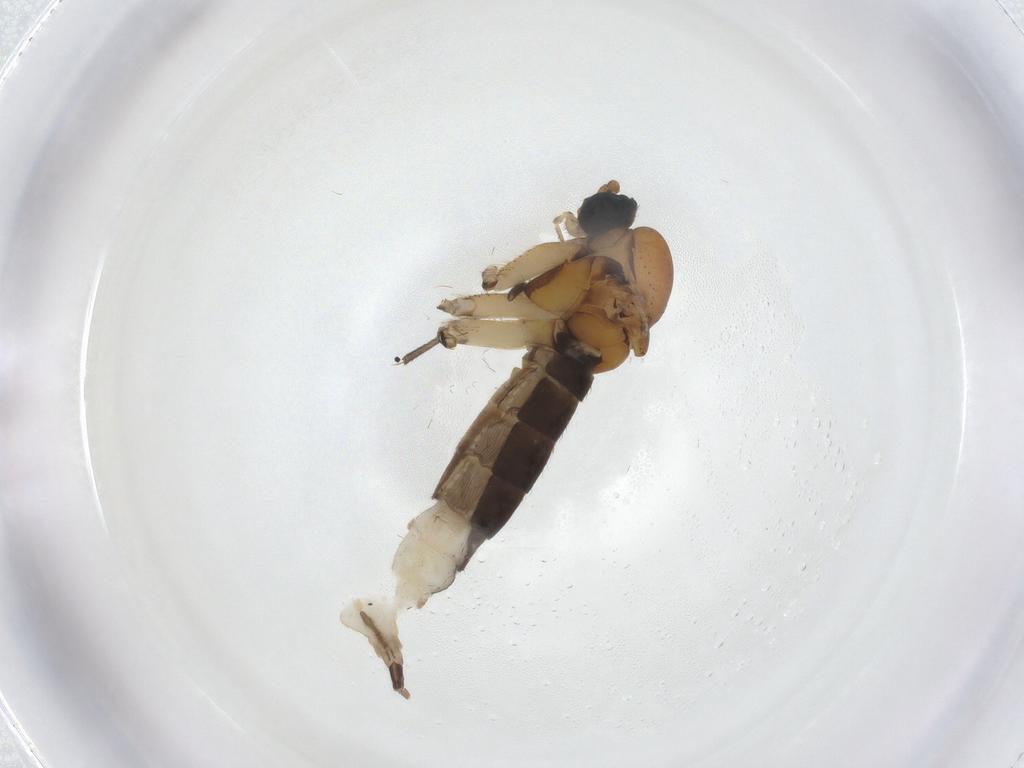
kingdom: Animalia
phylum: Arthropoda
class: Insecta
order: Diptera
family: Sciaridae
